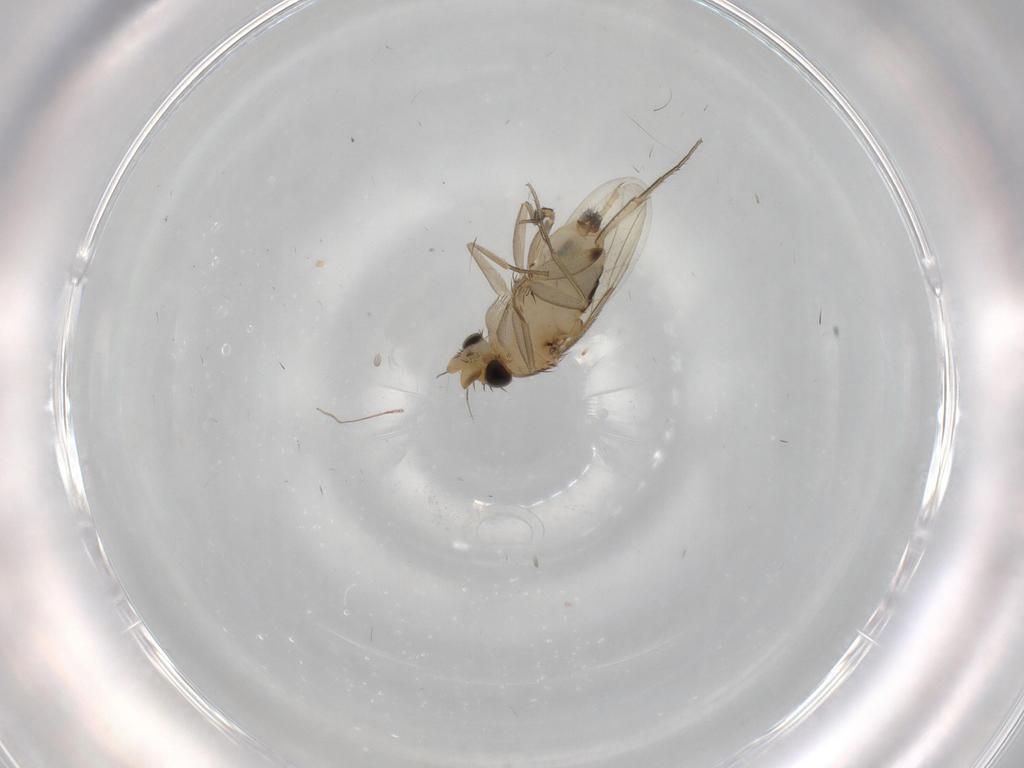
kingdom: Animalia
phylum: Arthropoda
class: Insecta
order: Diptera
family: Phoridae
